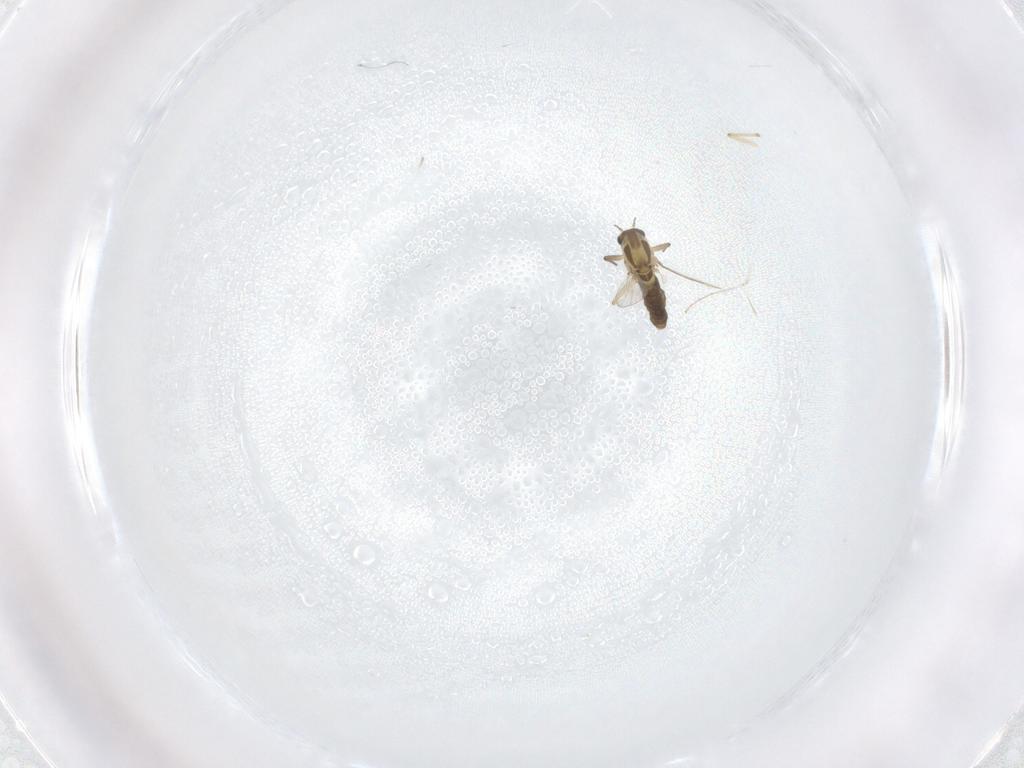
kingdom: Animalia
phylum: Arthropoda
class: Insecta
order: Diptera
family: Cecidomyiidae
